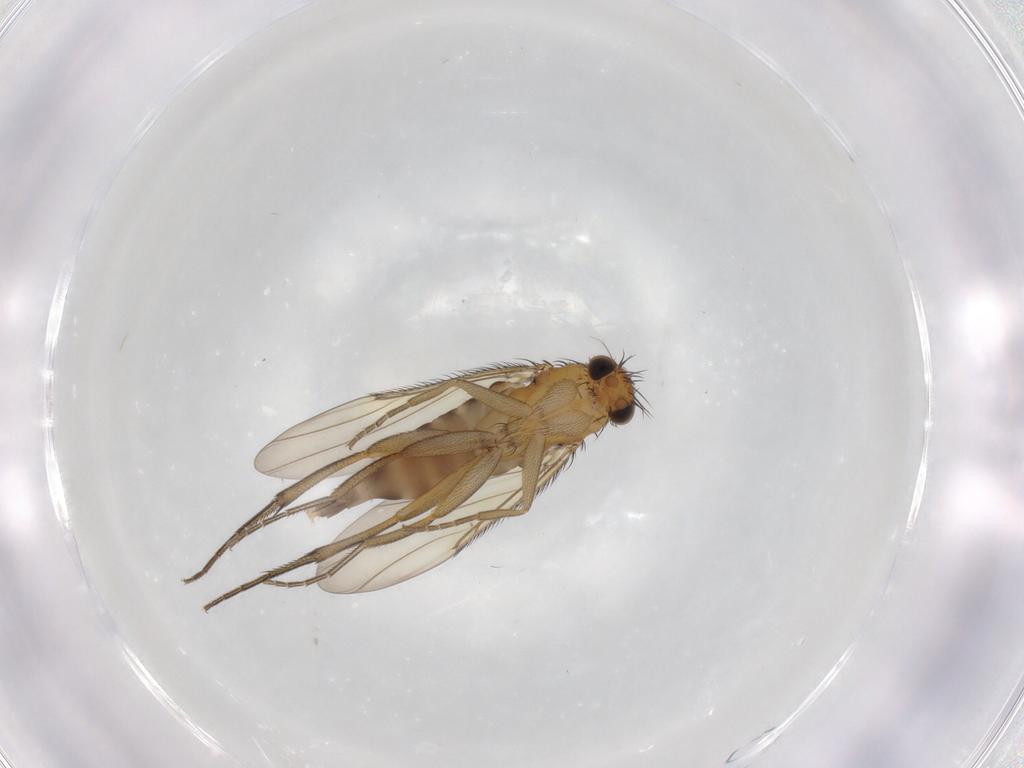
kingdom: Animalia
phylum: Arthropoda
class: Insecta
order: Diptera
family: Phoridae
